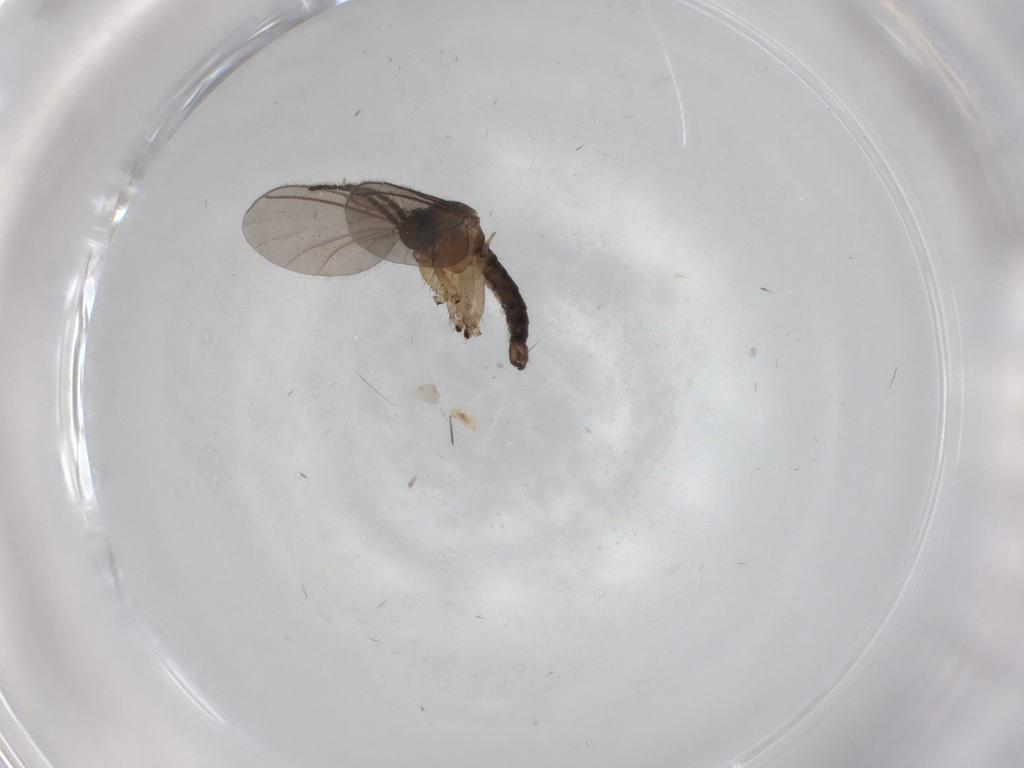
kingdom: Animalia
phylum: Arthropoda
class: Insecta
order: Diptera
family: Sciaridae
